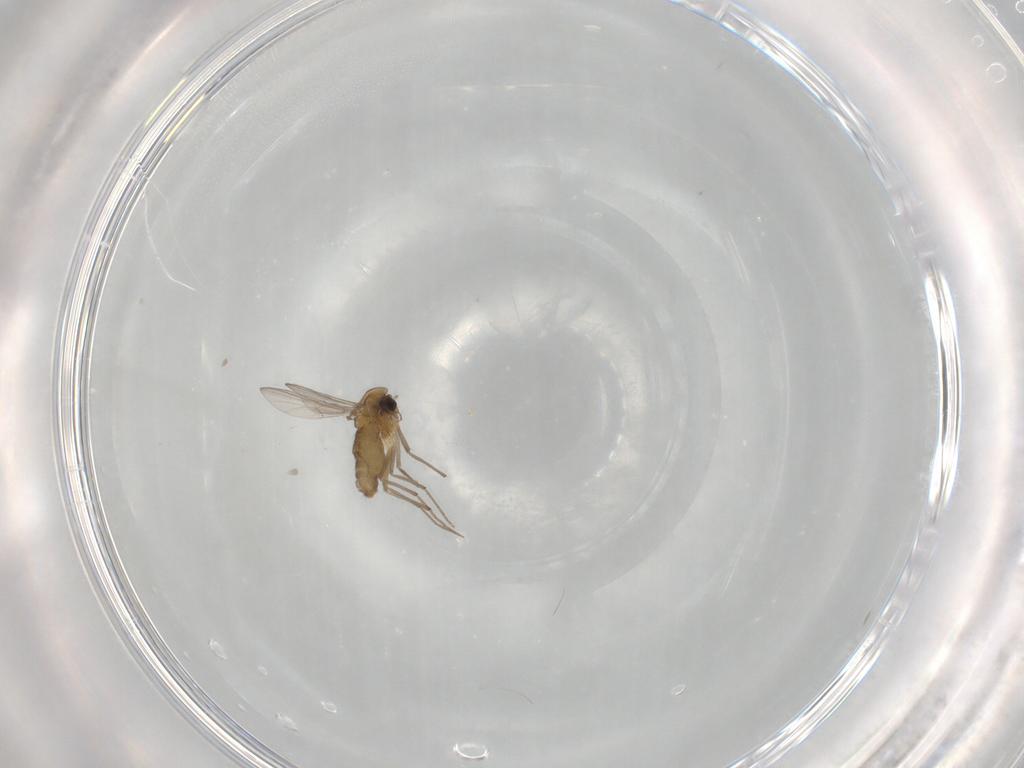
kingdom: Animalia
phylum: Arthropoda
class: Insecta
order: Diptera
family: Chironomidae
